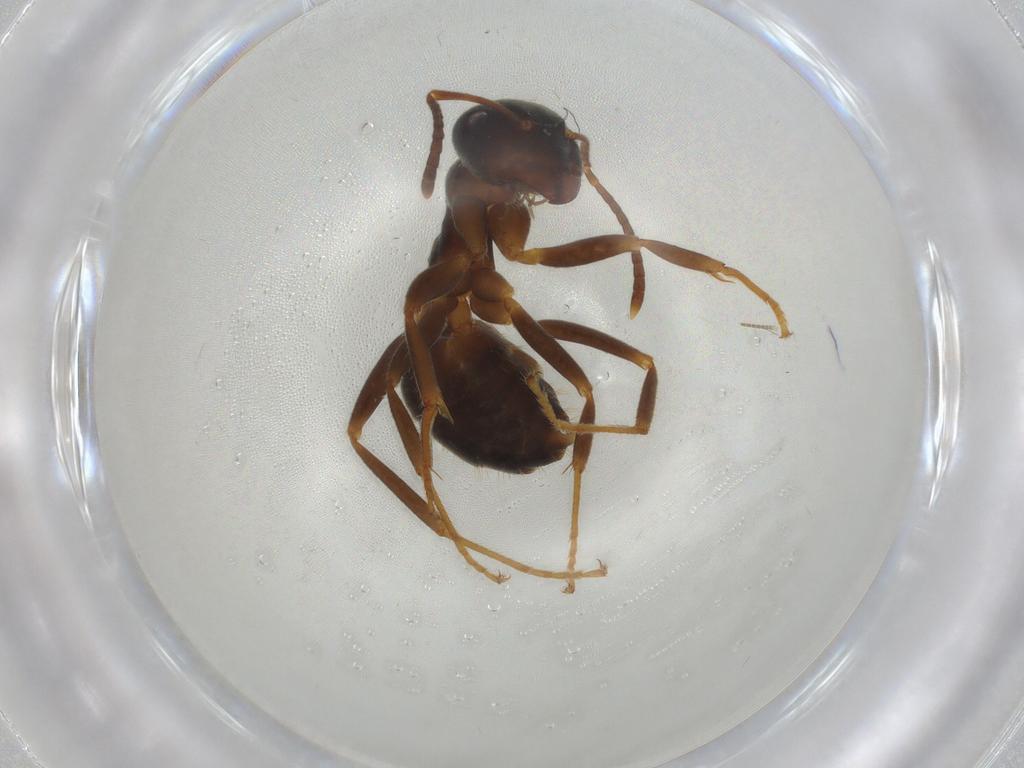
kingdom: Animalia
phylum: Arthropoda
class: Insecta
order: Hymenoptera
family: Formicidae
